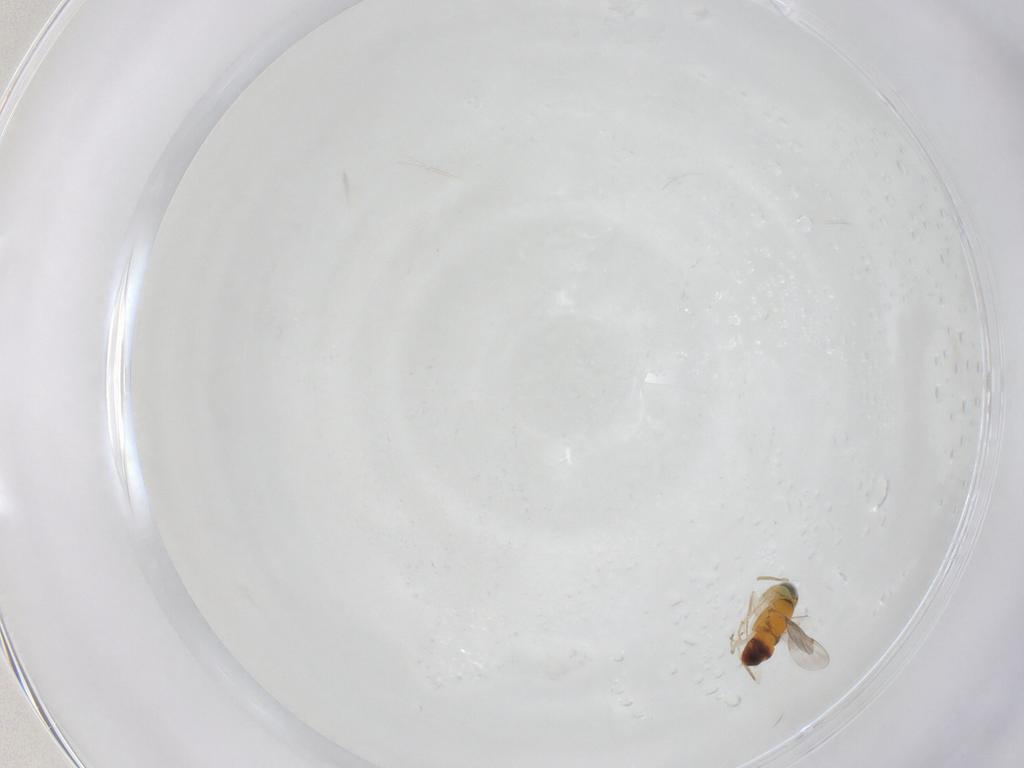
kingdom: Animalia
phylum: Arthropoda
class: Insecta
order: Hymenoptera
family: Encyrtidae
